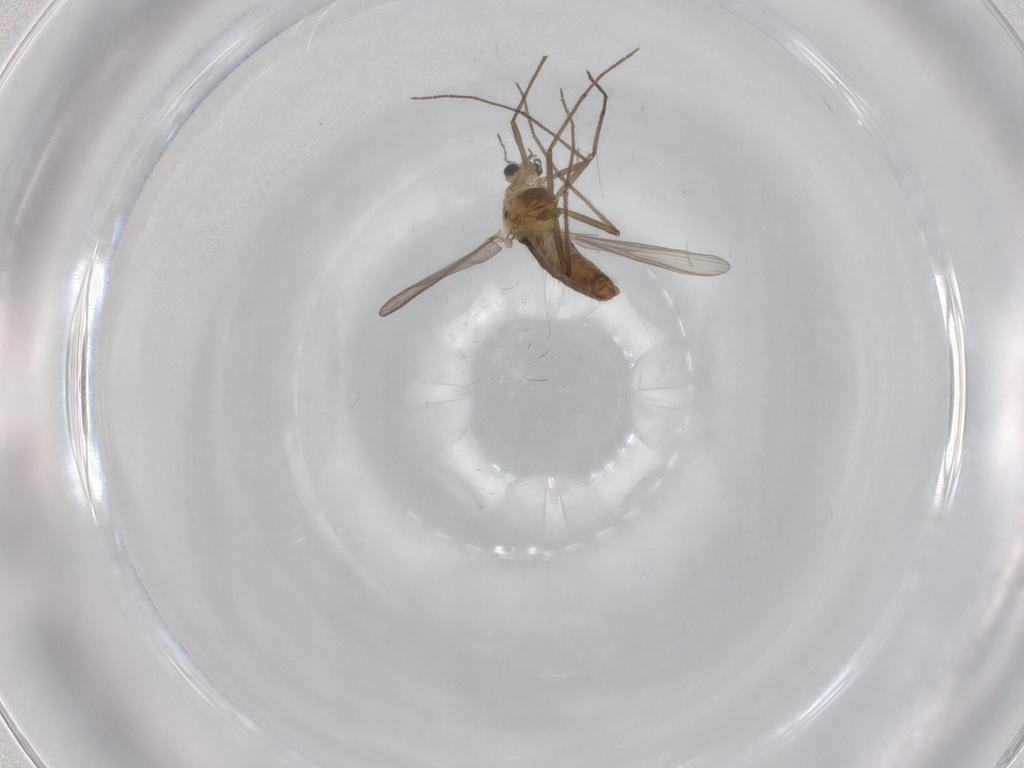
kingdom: Animalia
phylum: Arthropoda
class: Insecta
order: Diptera
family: Chironomidae
